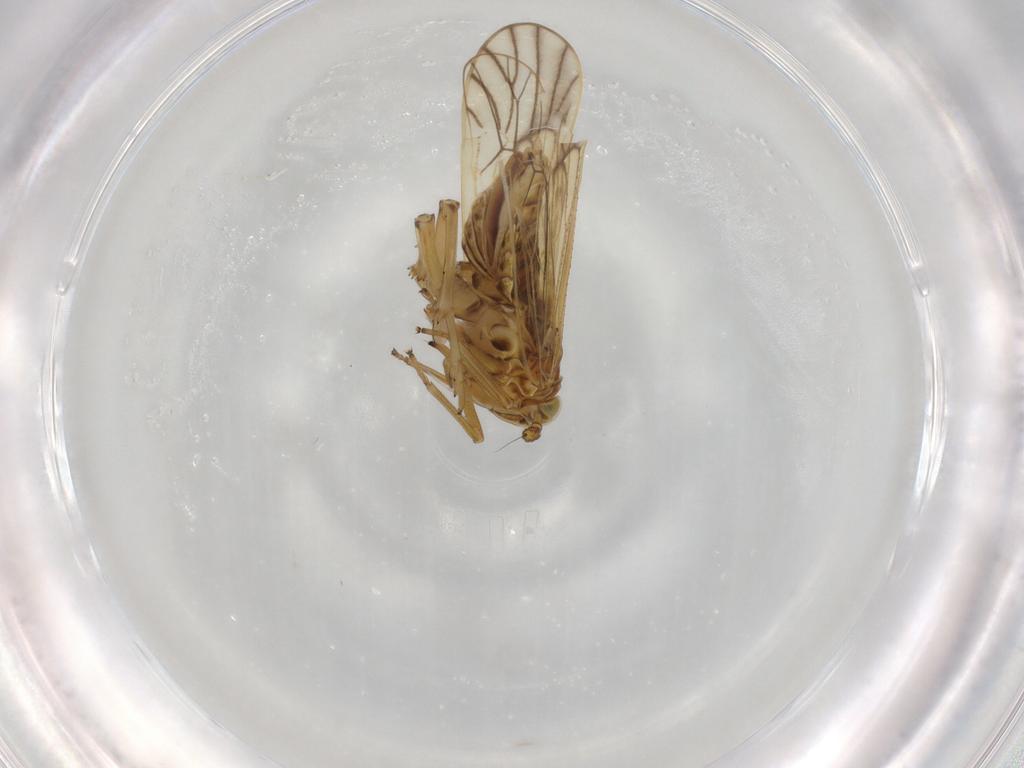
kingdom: Animalia
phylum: Arthropoda
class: Insecta
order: Hemiptera
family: Delphacidae
